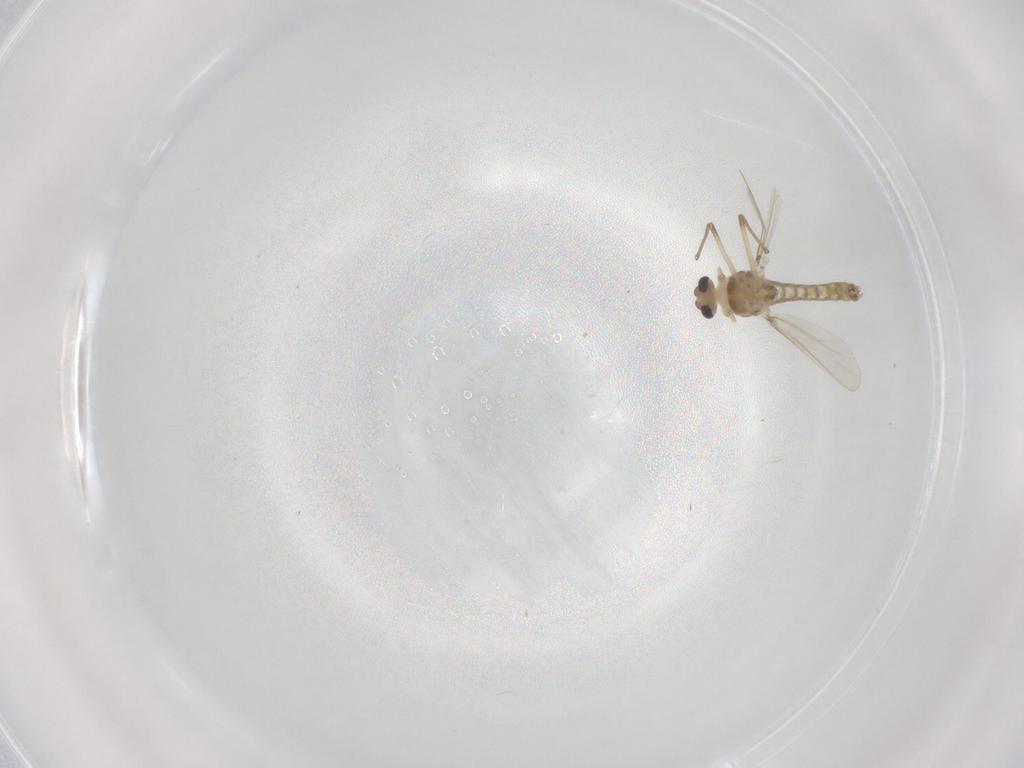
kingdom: Animalia
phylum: Arthropoda
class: Insecta
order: Diptera
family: Chironomidae
